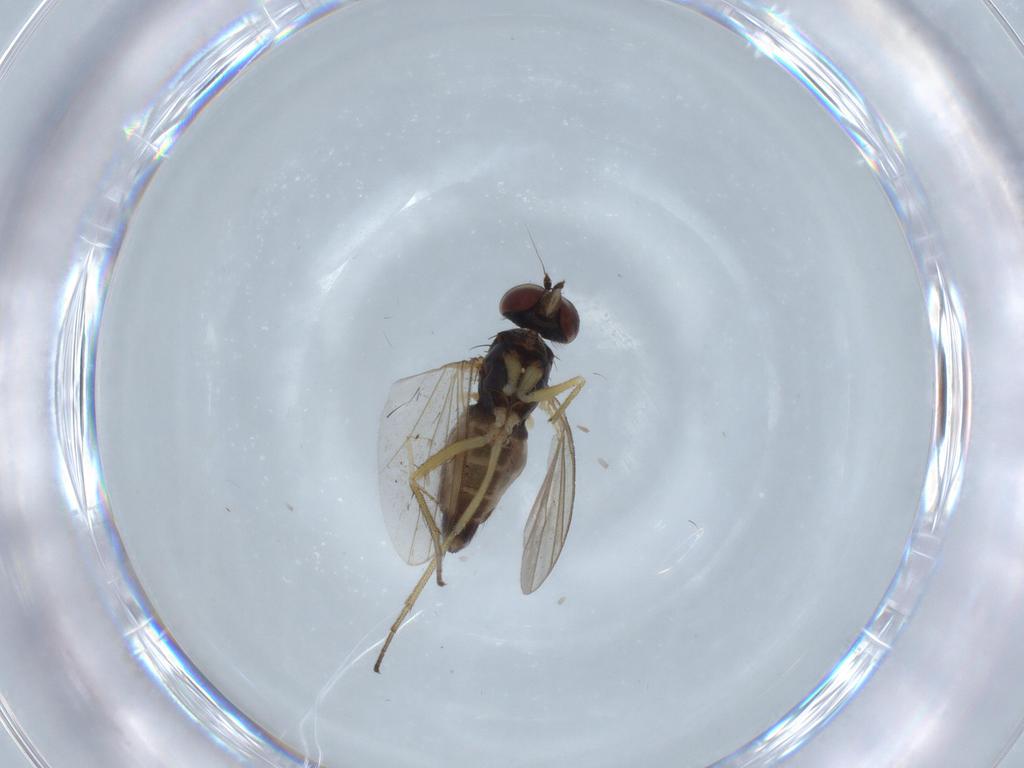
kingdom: Animalia
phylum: Arthropoda
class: Insecta
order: Diptera
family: Dolichopodidae
